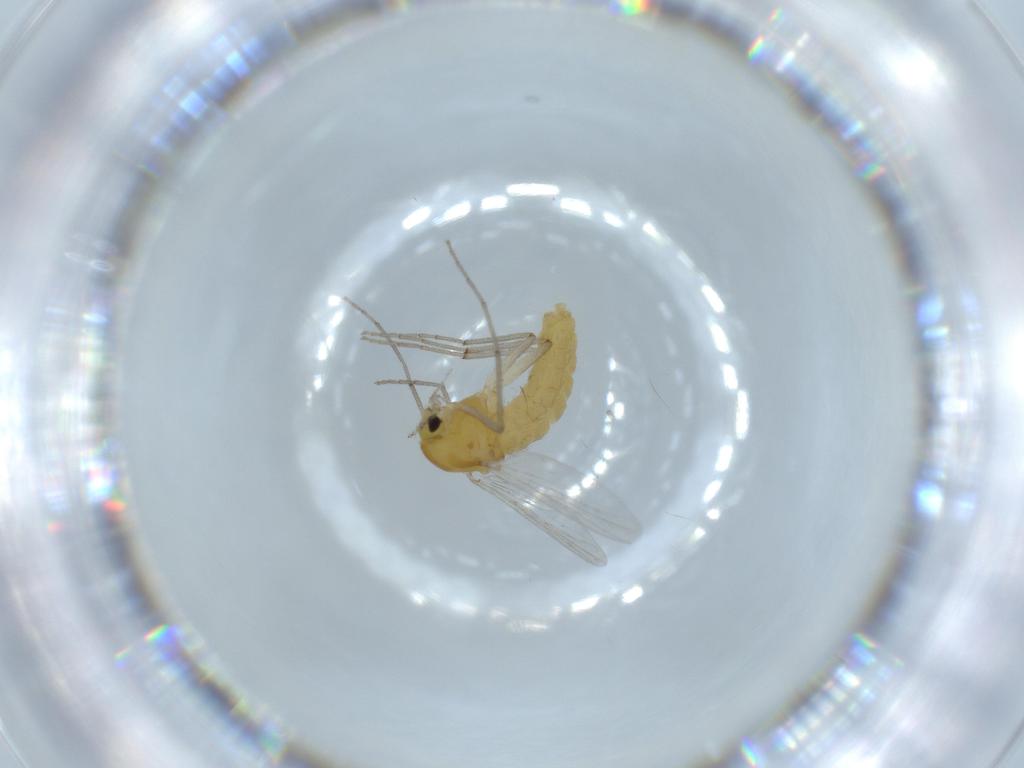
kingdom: Animalia
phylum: Arthropoda
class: Insecta
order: Diptera
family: Chironomidae
